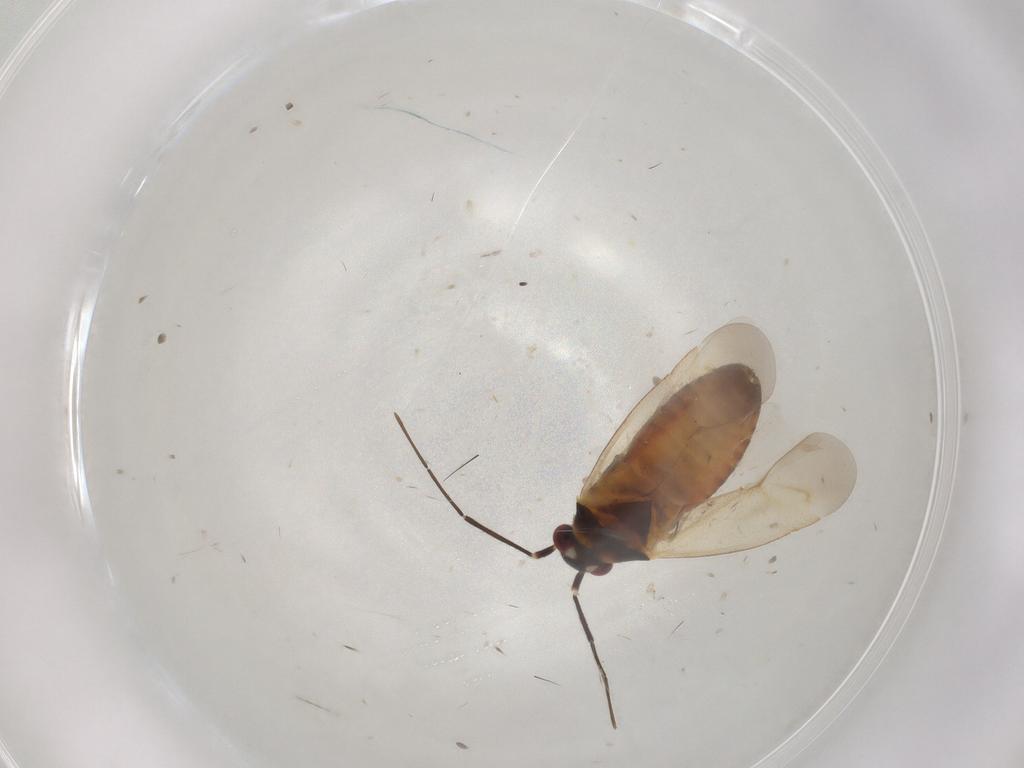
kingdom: Animalia
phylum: Arthropoda
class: Insecta
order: Hemiptera
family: Miridae
